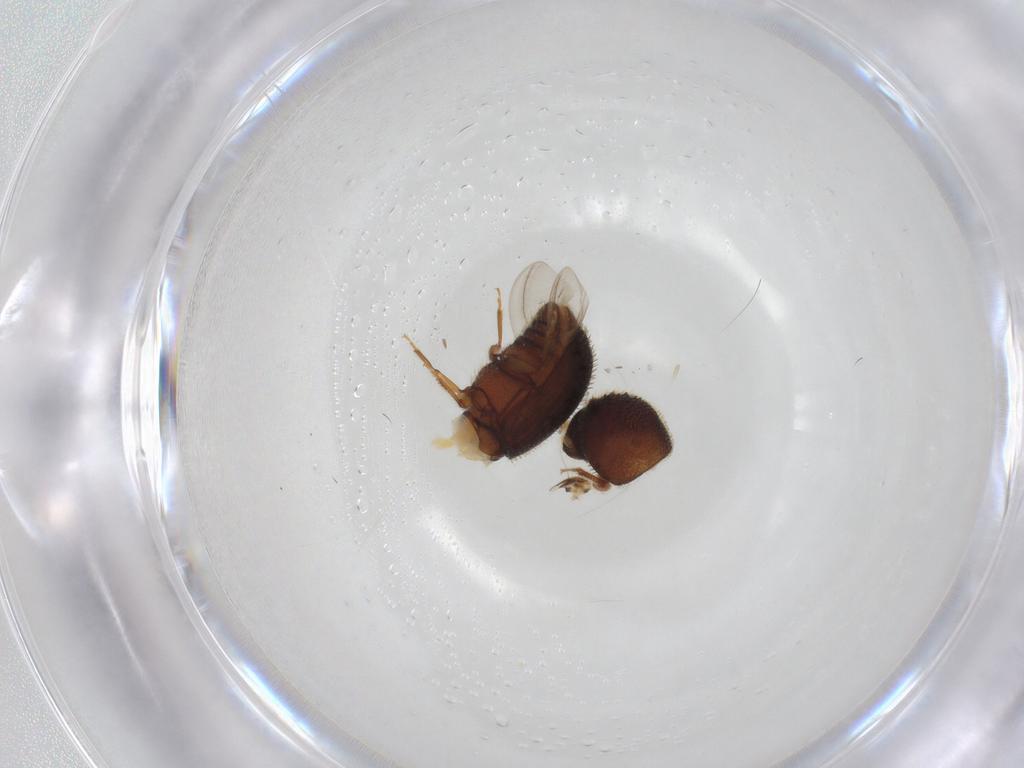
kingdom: Animalia
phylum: Arthropoda
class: Insecta
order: Coleoptera
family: Curculionidae
